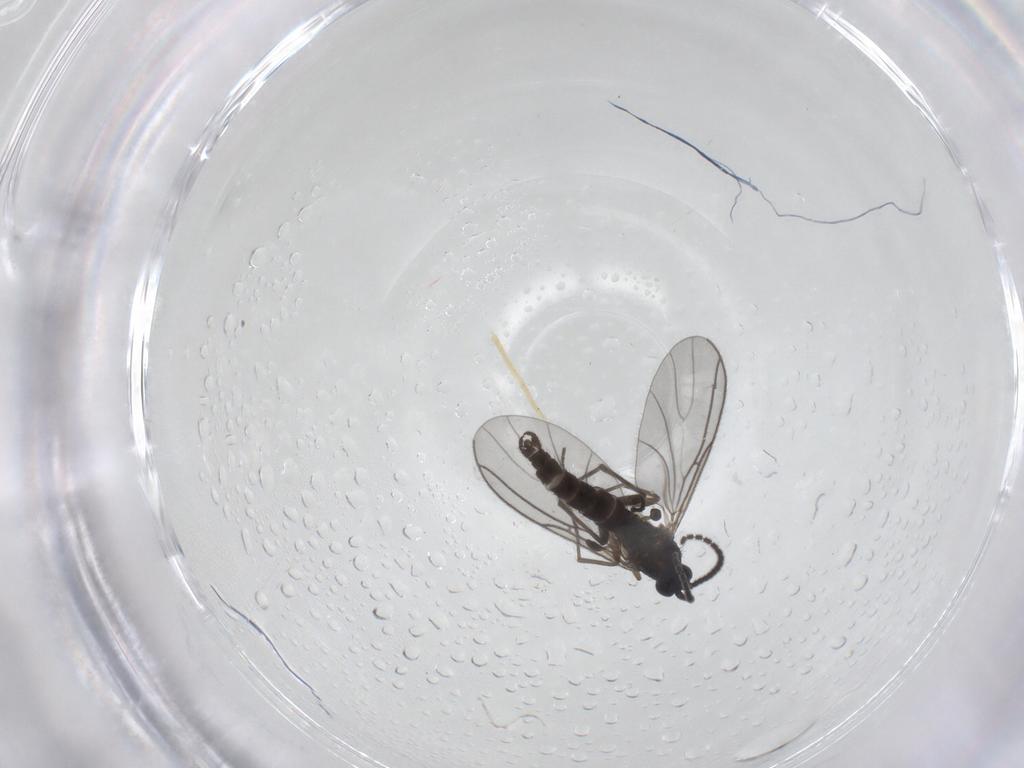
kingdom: Animalia
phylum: Arthropoda
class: Insecta
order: Diptera
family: Sciaridae
